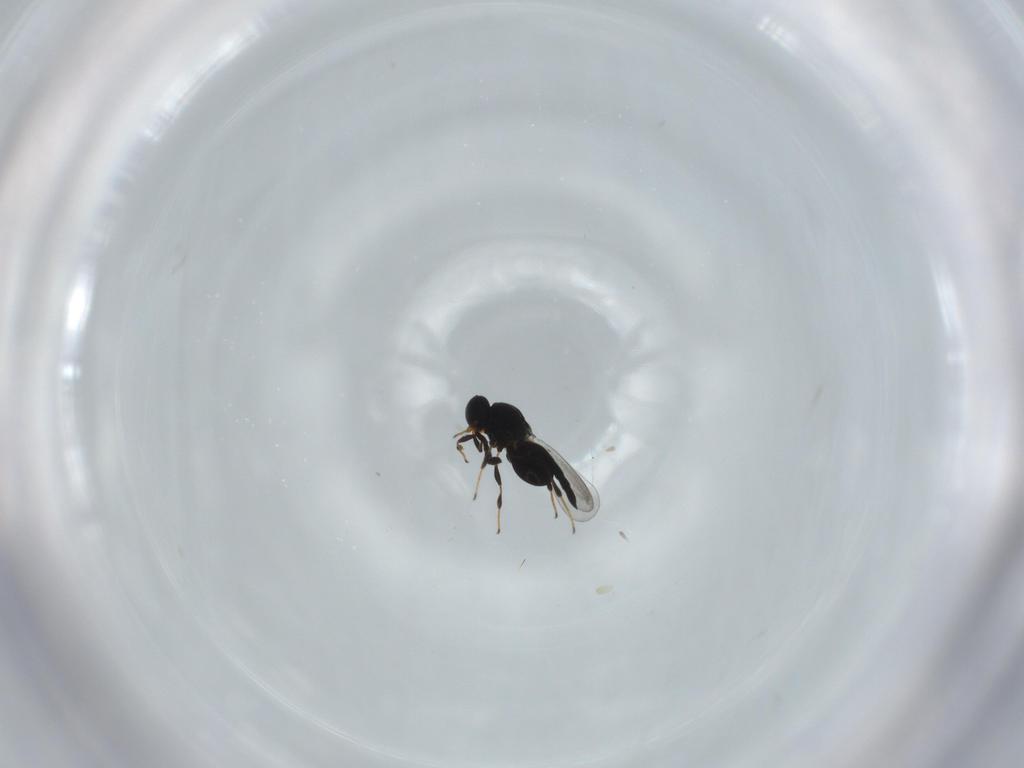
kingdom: Animalia
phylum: Arthropoda
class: Insecta
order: Hymenoptera
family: Platygastridae
